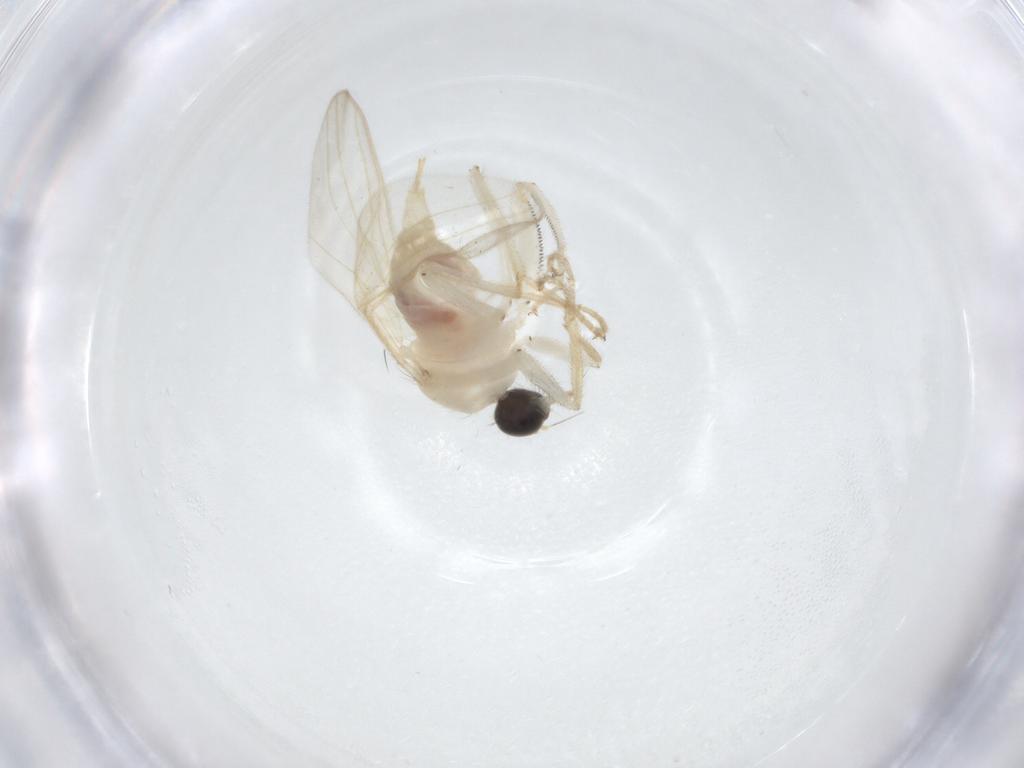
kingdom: Animalia
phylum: Arthropoda
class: Insecta
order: Diptera
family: Hybotidae
